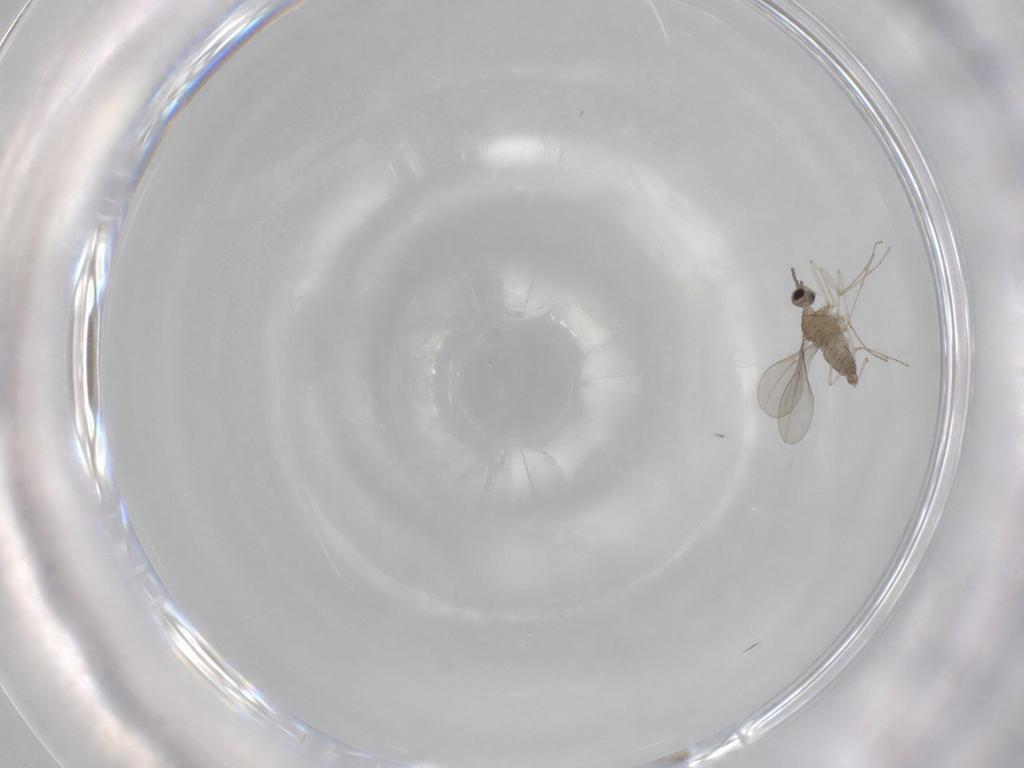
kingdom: Animalia
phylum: Arthropoda
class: Insecta
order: Diptera
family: Cecidomyiidae
